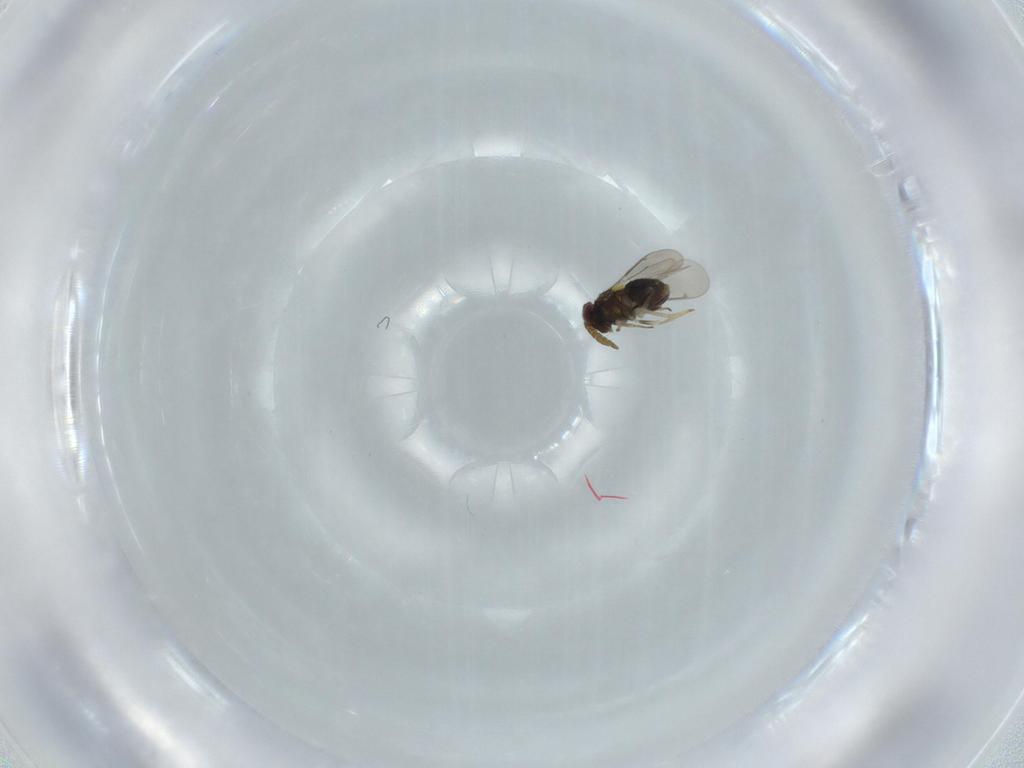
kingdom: Animalia
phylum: Arthropoda
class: Insecta
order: Hymenoptera
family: Aphelinidae
